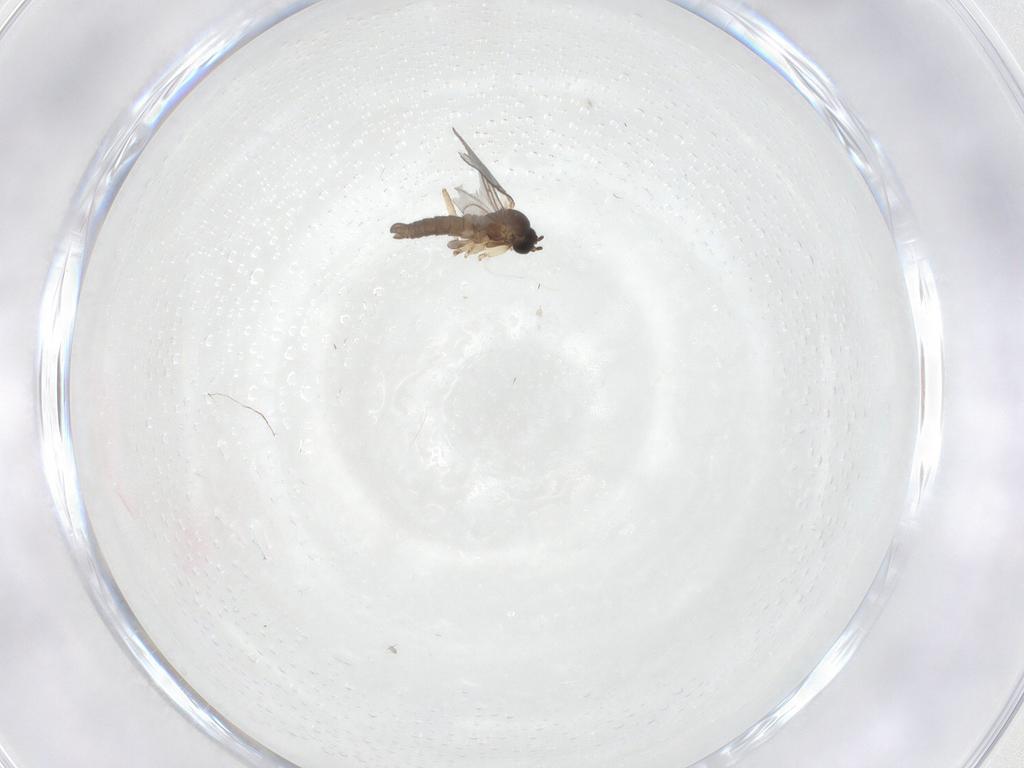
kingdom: Animalia
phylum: Arthropoda
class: Insecta
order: Diptera
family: Sciaridae
